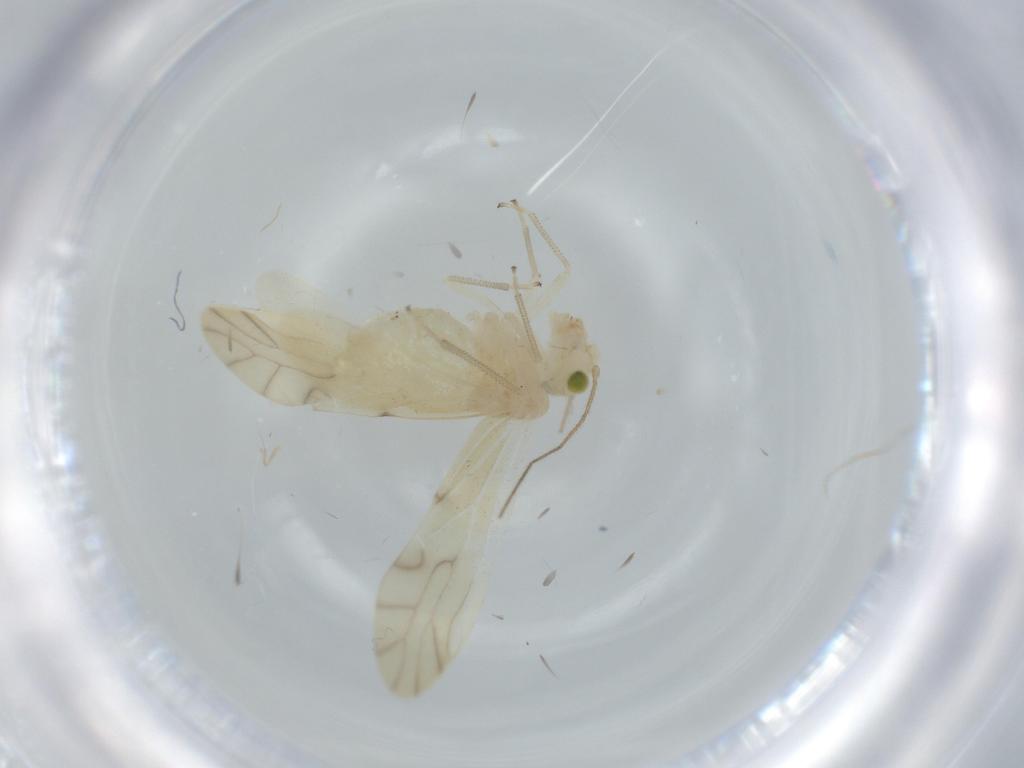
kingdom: Animalia
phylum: Arthropoda
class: Insecta
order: Psocodea
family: Caeciliusidae
